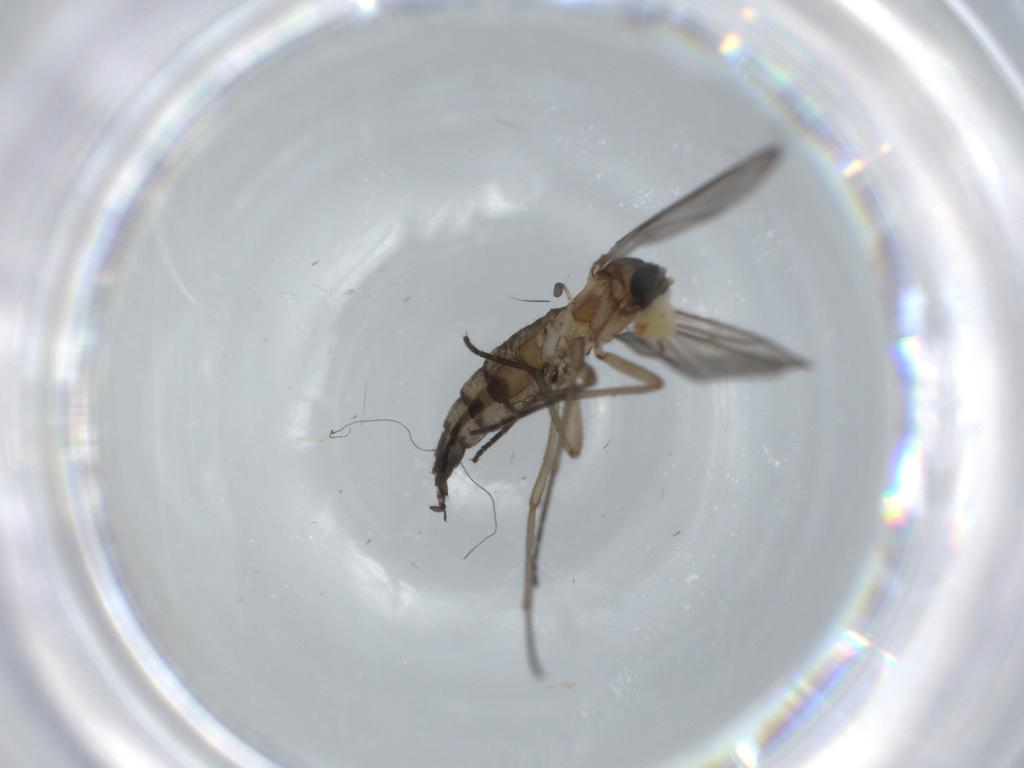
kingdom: Animalia
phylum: Arthropoda
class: Insecta
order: Diptera
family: Sciaridae
